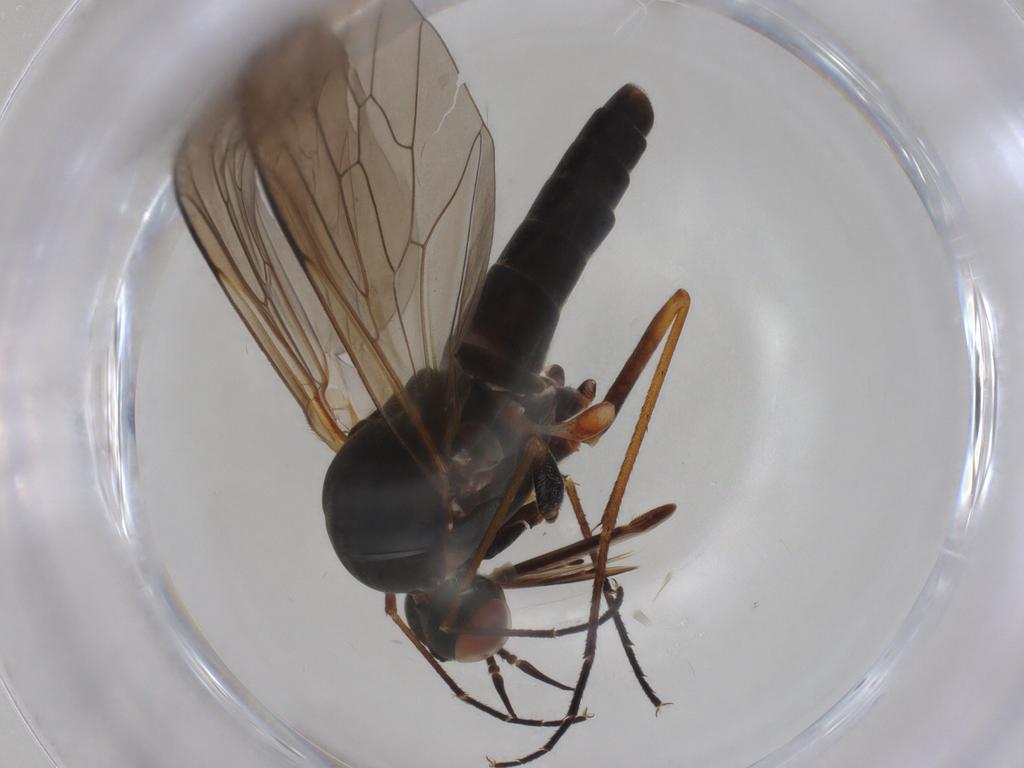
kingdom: Animalia
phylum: Arthropoda
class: Insecta
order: Diptera
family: Bombyliidae
